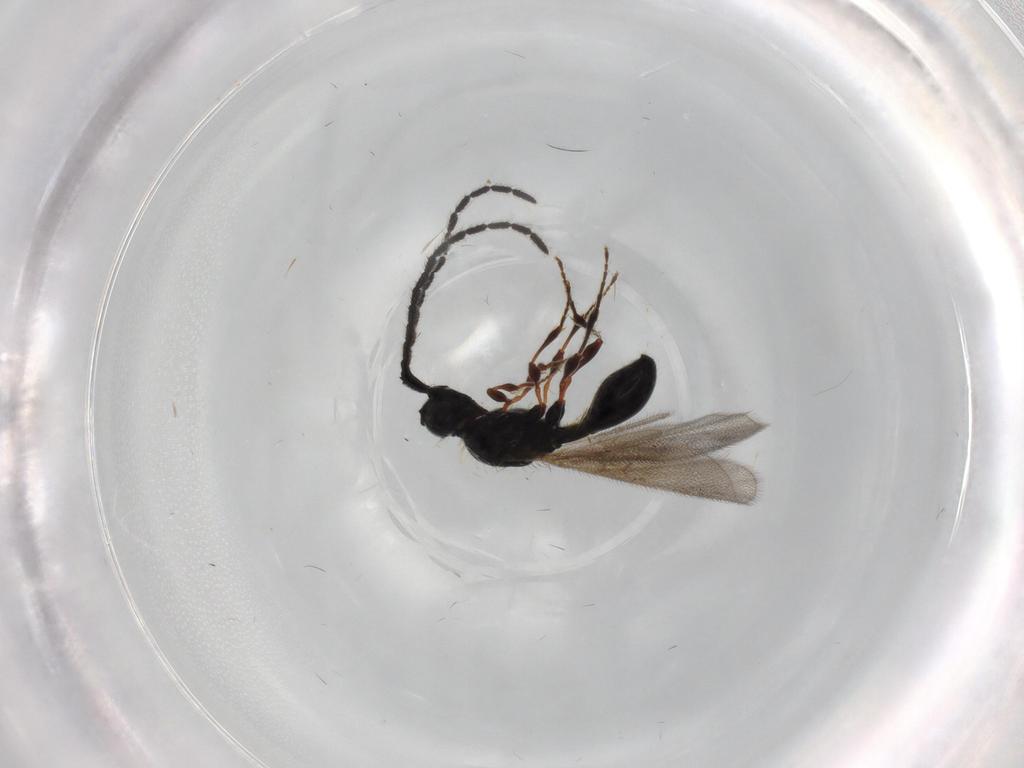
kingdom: Animalia
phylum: Arthropoda
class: Insecta
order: Hymenoptera
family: Diapriidae
